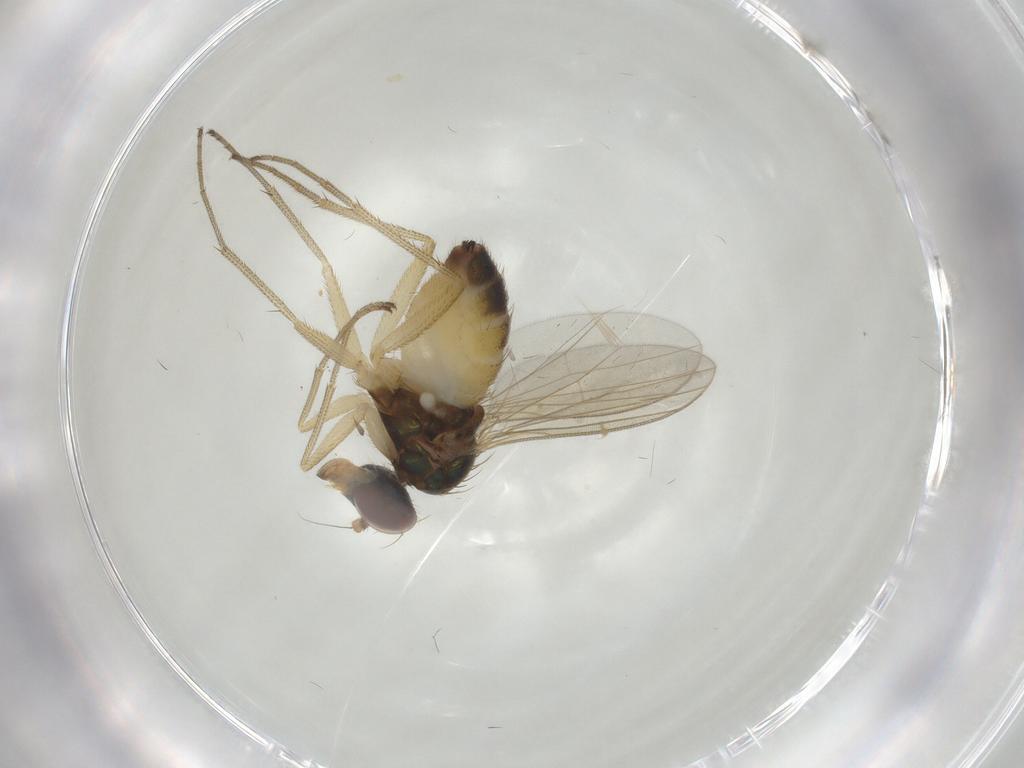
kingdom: Animalia
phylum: Arthropoda
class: Insecta
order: Diptera
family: Dolichopodidae
